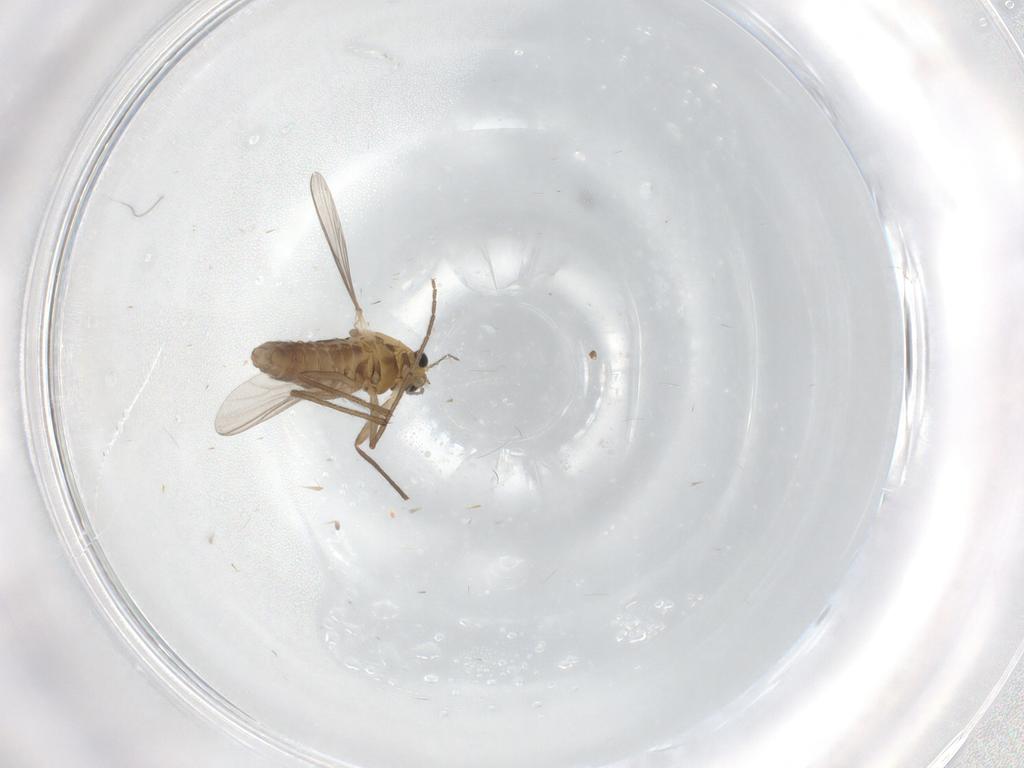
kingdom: Animalia
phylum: Arthropoda
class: Insecta
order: Diptera
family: Chironomidae
